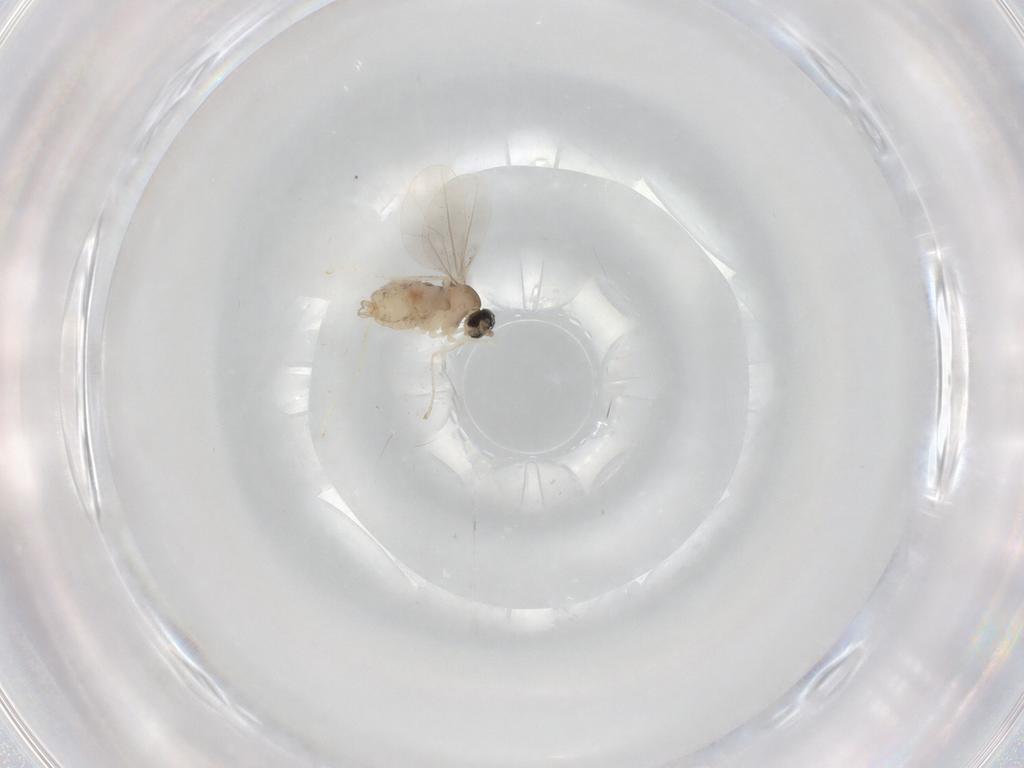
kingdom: Animalia
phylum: Arthropoda
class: Insecta
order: Diptera
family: Cecidomyiidae
